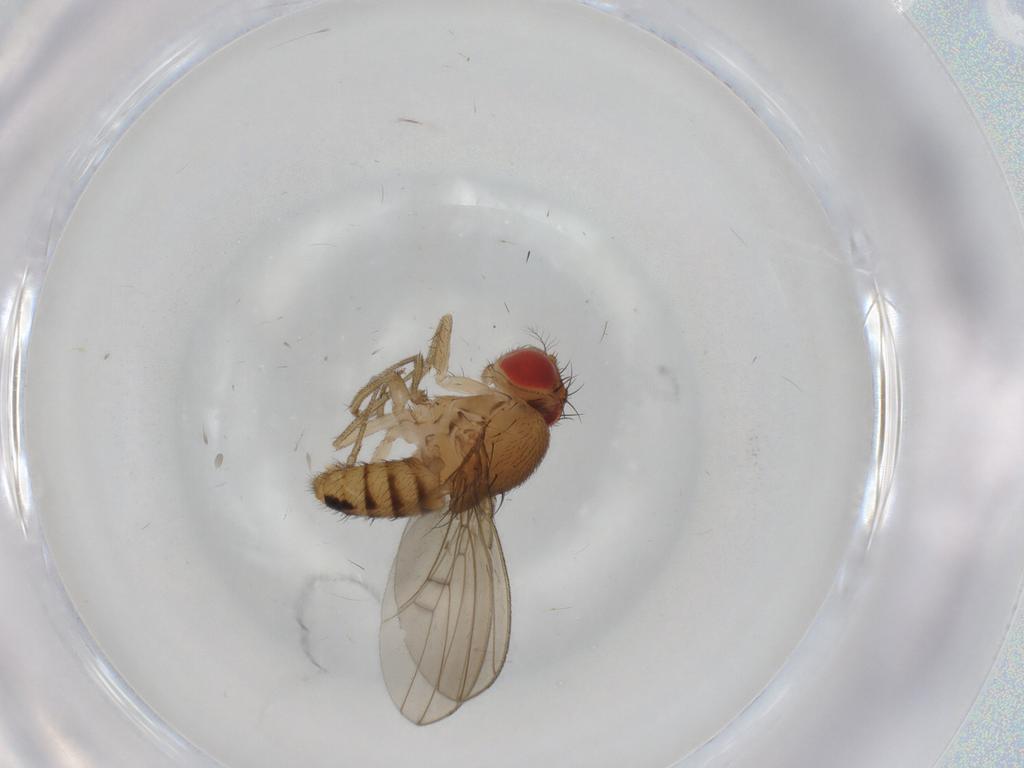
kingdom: Animalia
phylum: Arthropoda
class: Insecta
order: Diptera
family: Drosophilidae
